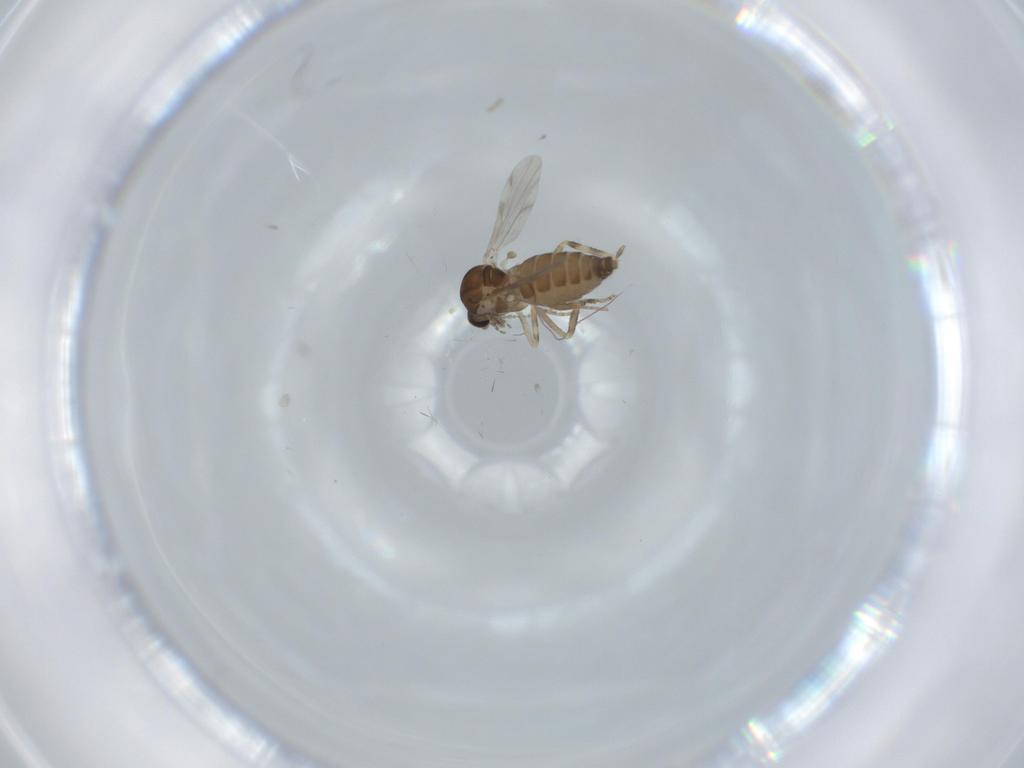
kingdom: Animalia
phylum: Arthropoda
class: Insecta
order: Diptera
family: Ceratopogonidae
